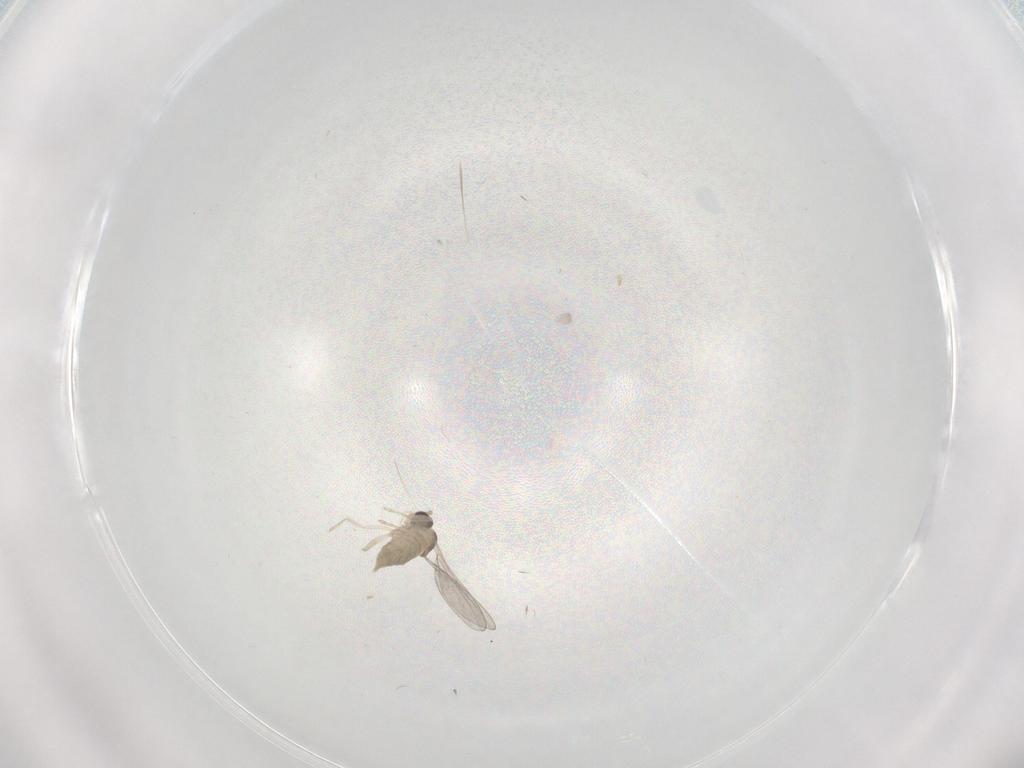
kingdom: Animalia
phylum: Arthropoda
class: Insecta
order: Diptera
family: Cecidomyiidae
